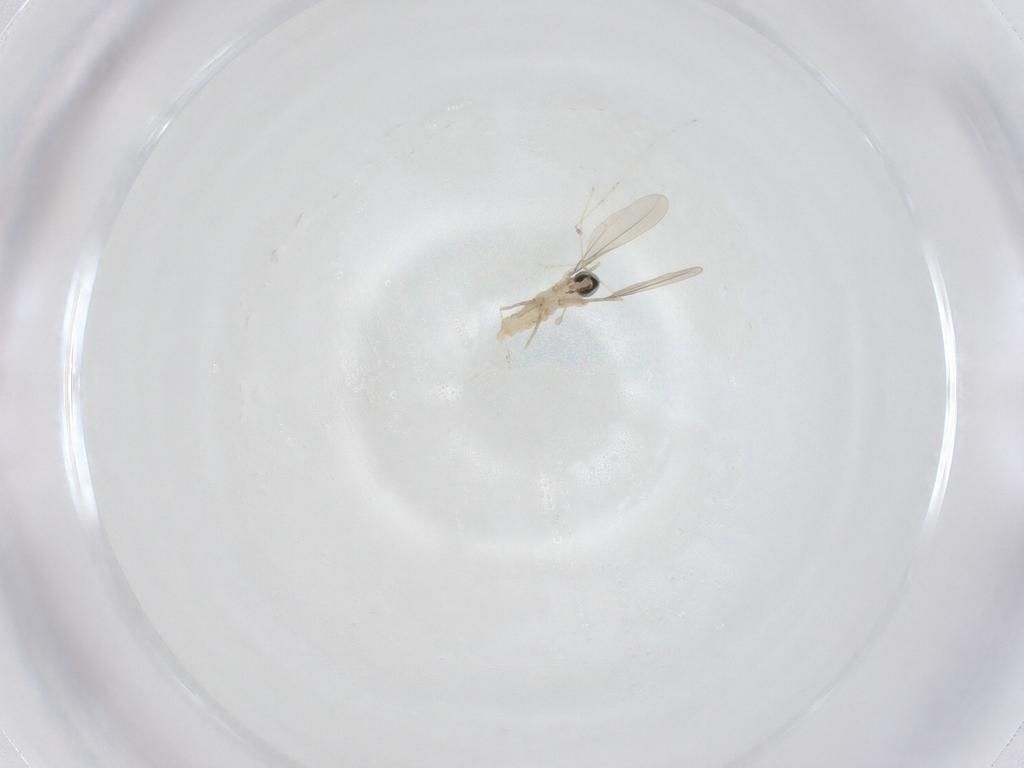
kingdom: Animalia
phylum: Arthropoda
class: Insecta
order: Diptera
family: Cecidomyiidae
